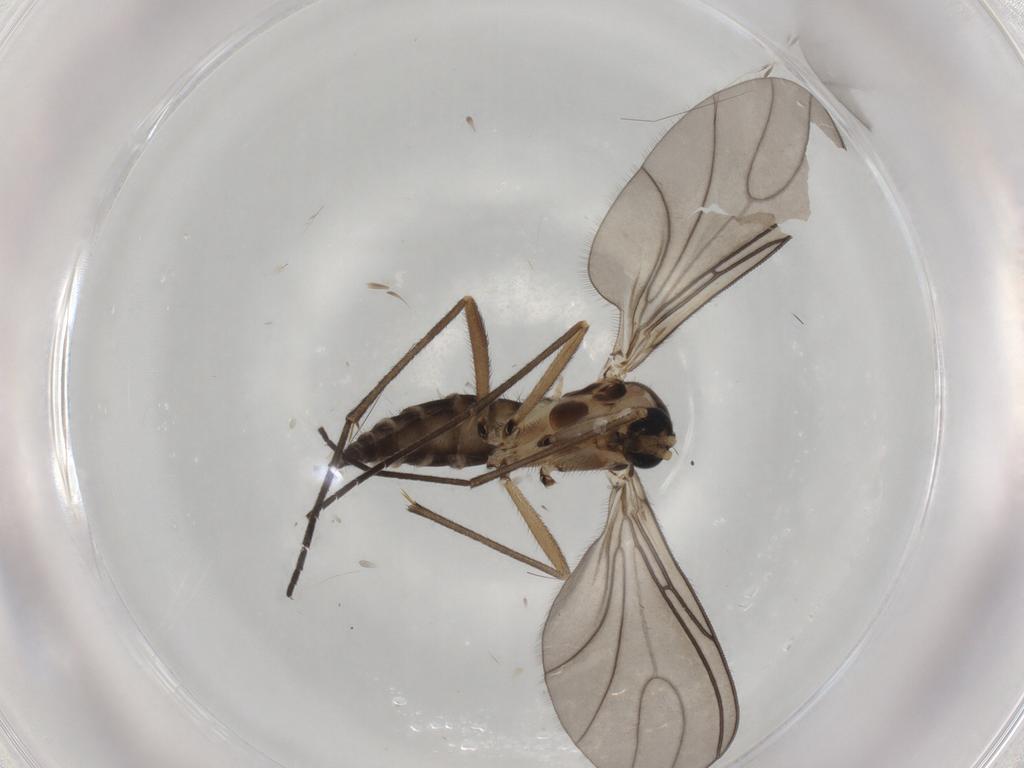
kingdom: Animalia
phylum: Arthropoda
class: Insecta
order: Diptera
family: Sciaridae
